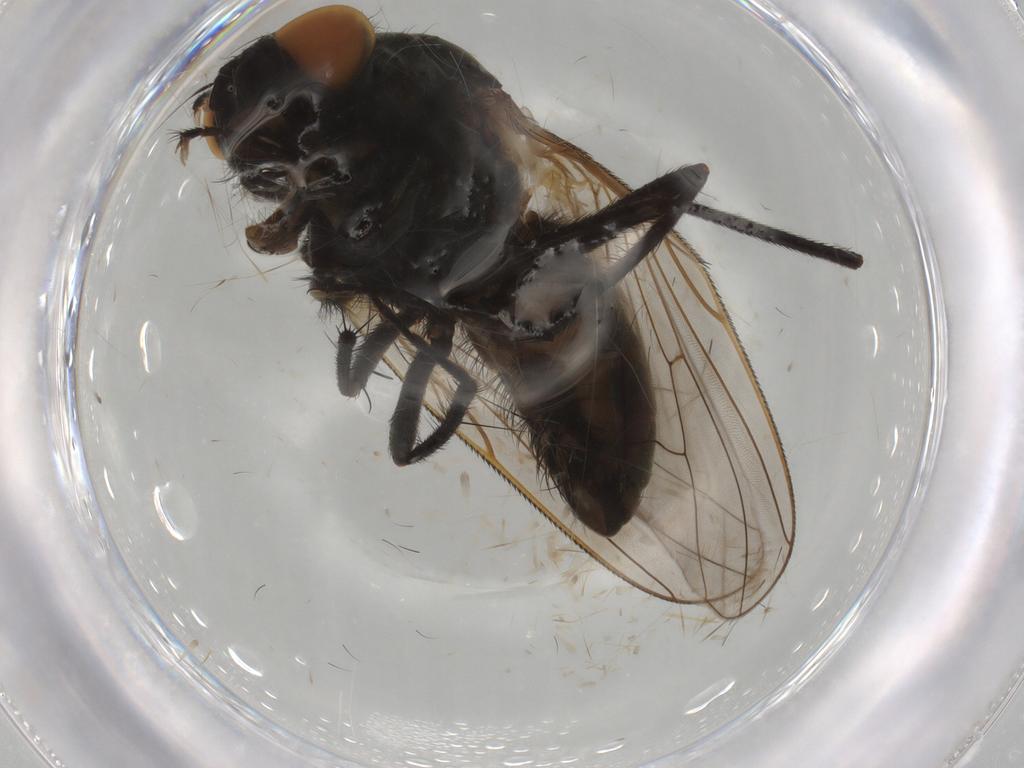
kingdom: Animalia
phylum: Arthropoda
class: Insecta
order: Diptera
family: Anthomyiidae
